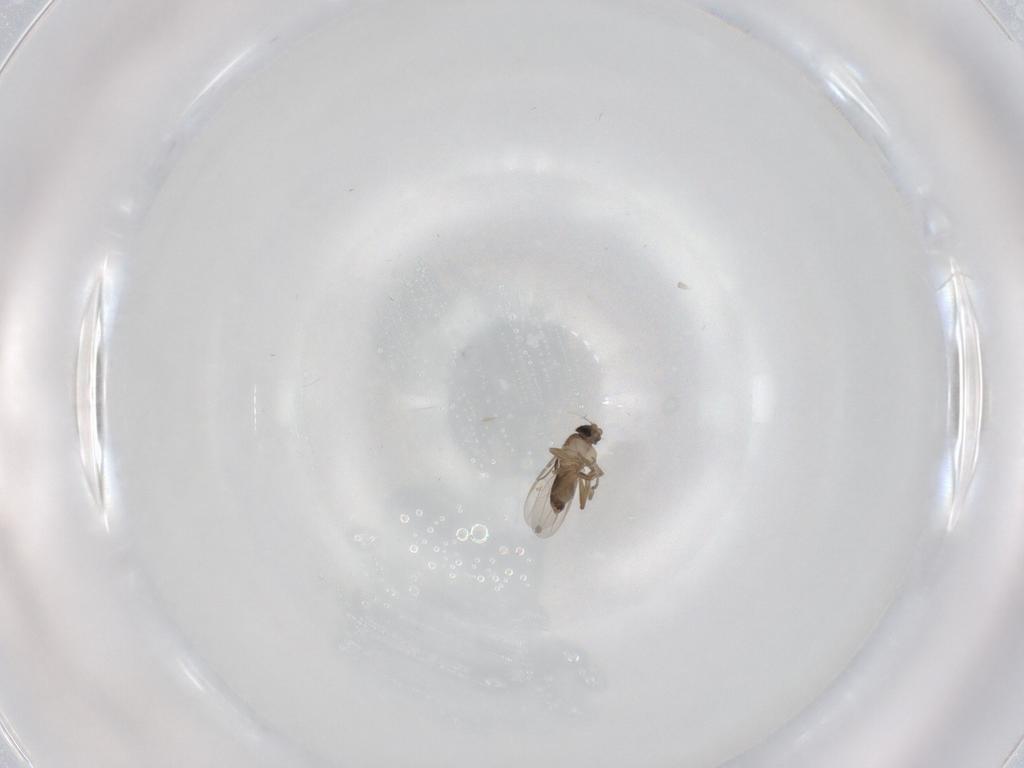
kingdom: Animalia
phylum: Arthropoda
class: Insecta
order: Diptera
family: Phoridae
